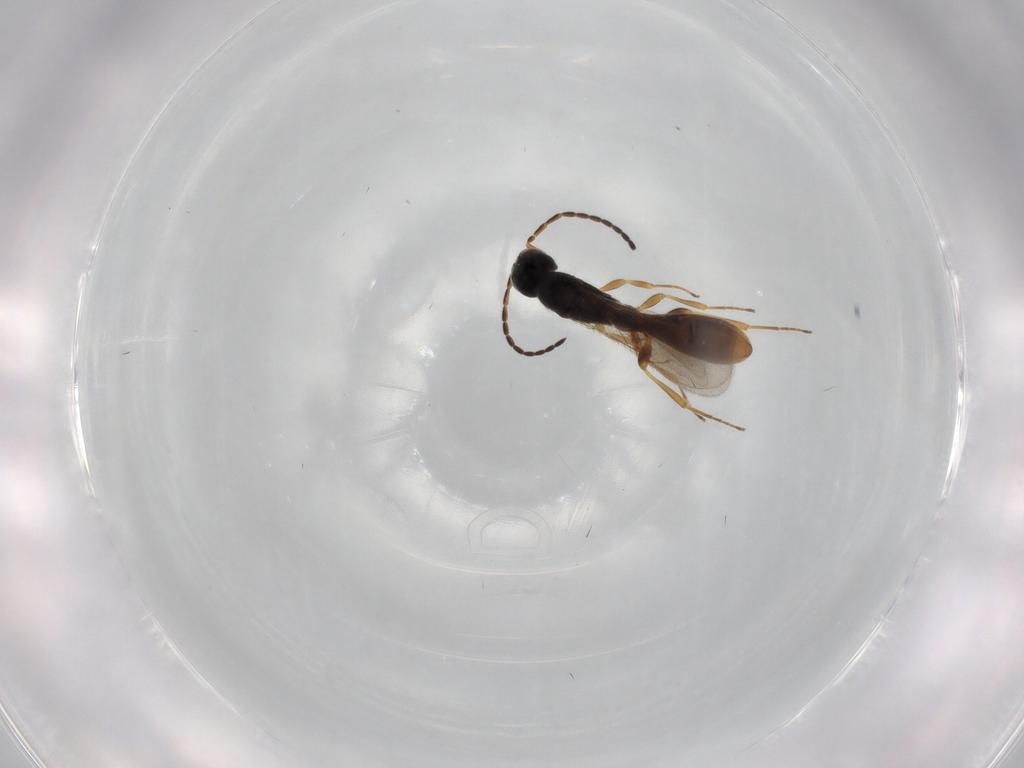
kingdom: Animalia
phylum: Arthropoda
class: Insecta
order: Hymenoptera
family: Scelionidae
